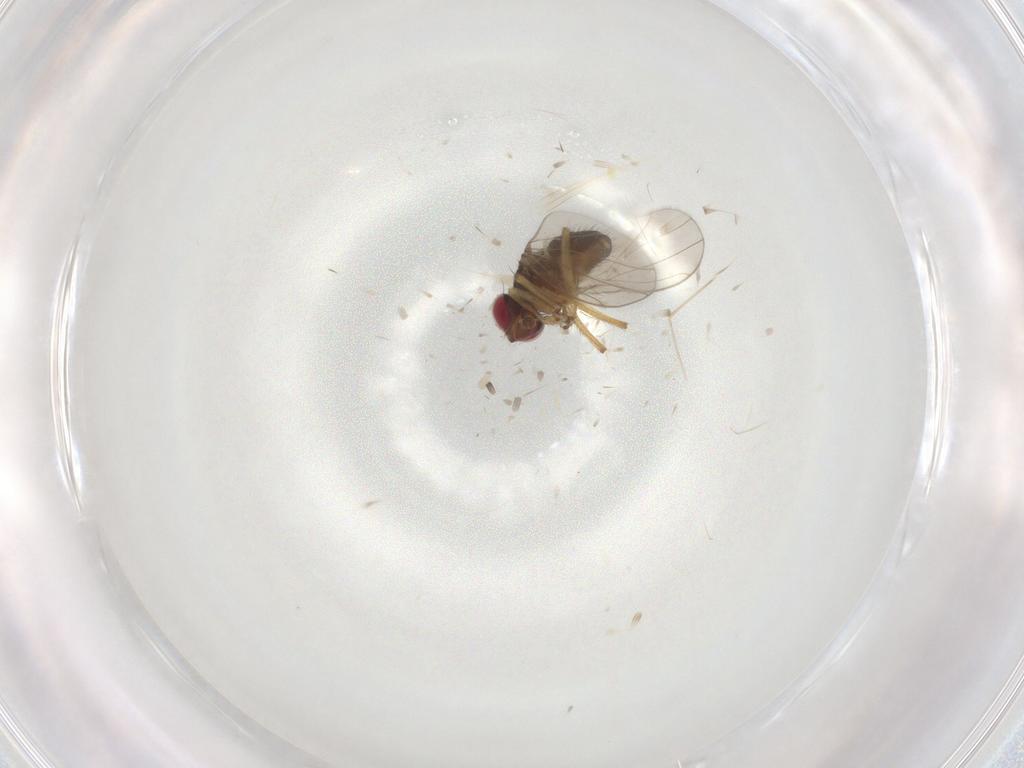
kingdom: Animalia
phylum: Arthropoda
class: Insecta
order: Diptera
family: Ephydridae
